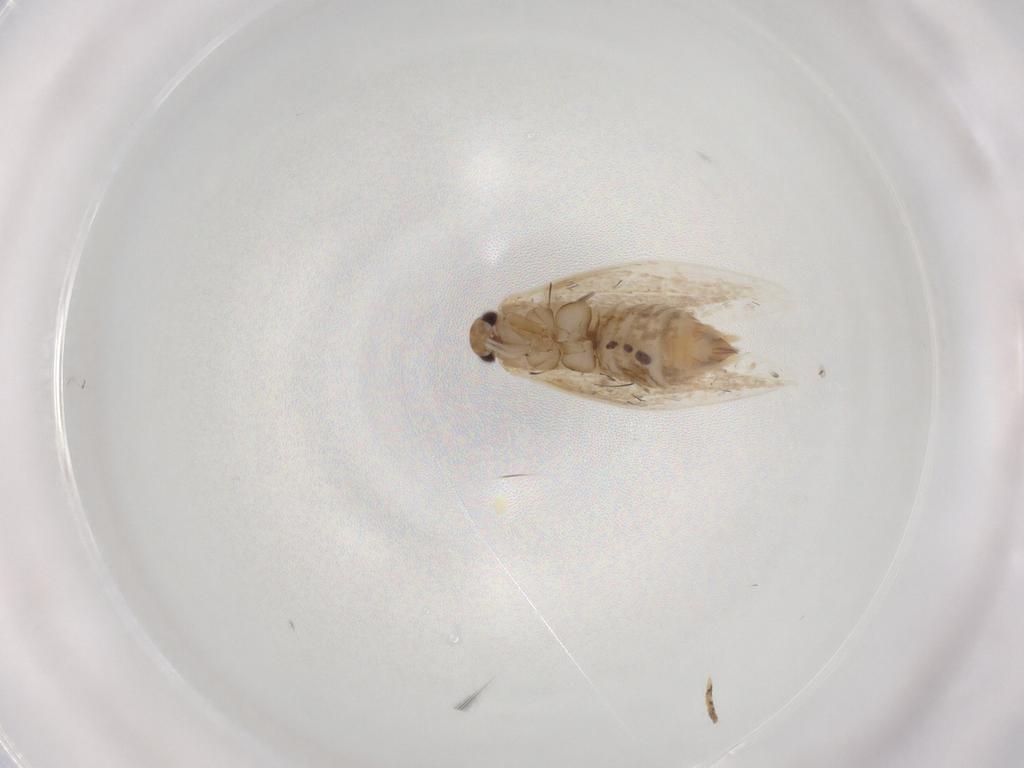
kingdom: Animalia
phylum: Arthropoda
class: Insecta
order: Lepidoptera
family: Bucculatricidae
